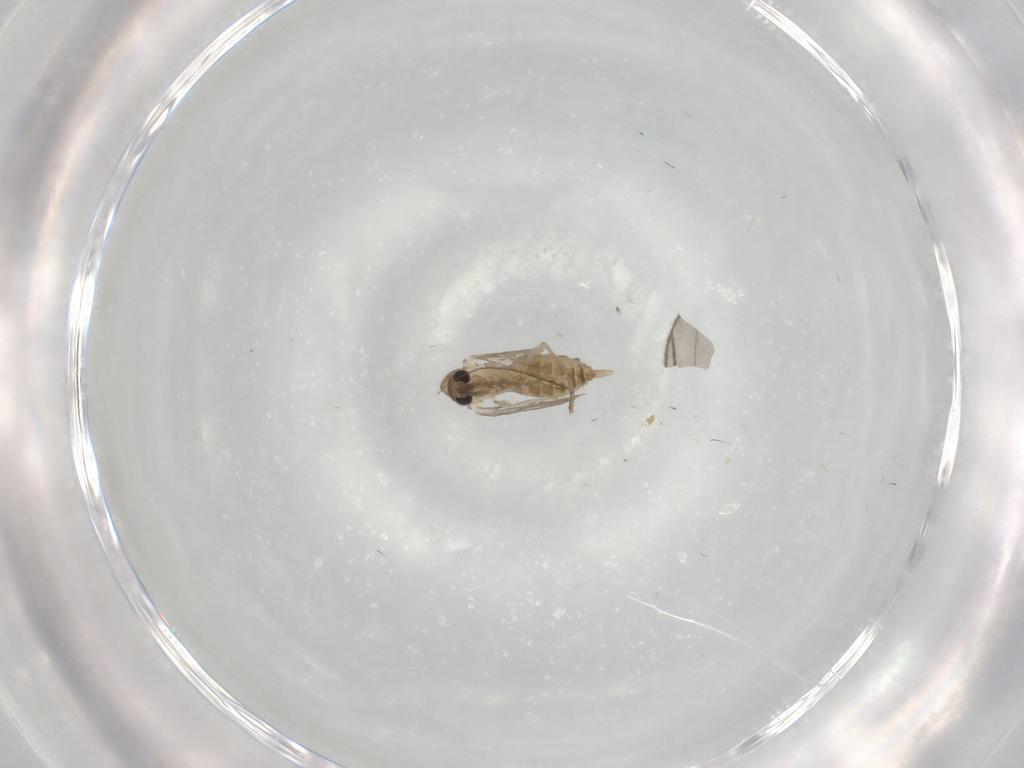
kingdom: Animalia
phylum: Arthropoda
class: Insecta
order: Diptera
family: Psychodidae
